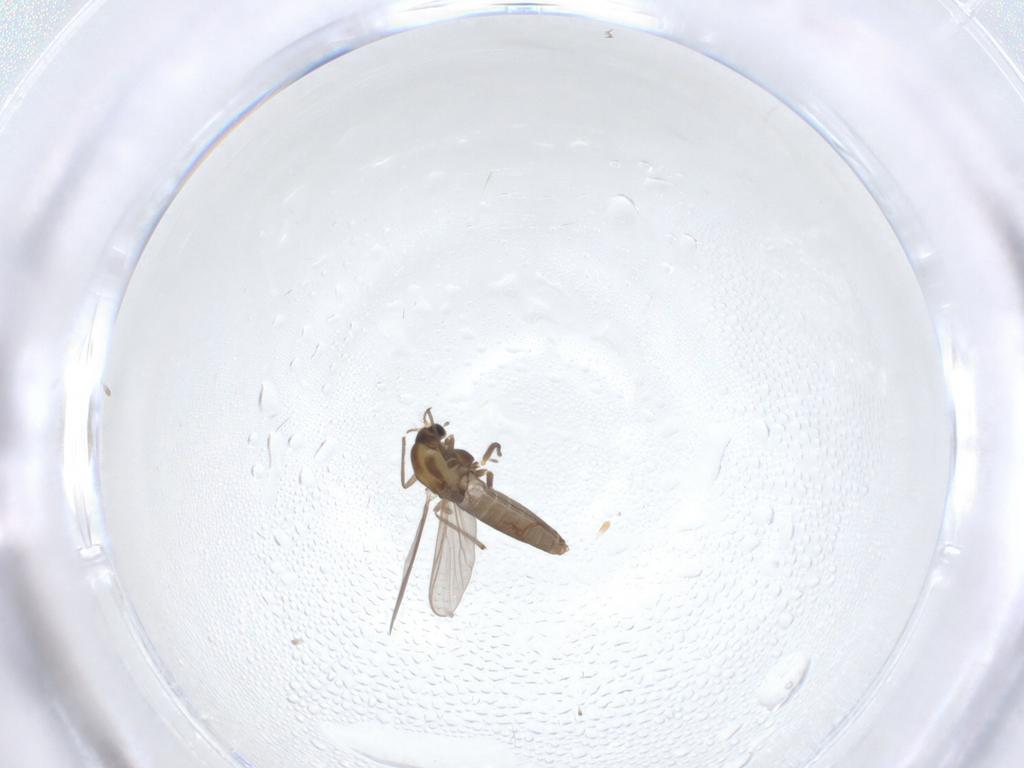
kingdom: Animalia
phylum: Arthropoda
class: Insecta
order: Diptera
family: Chironomidae
